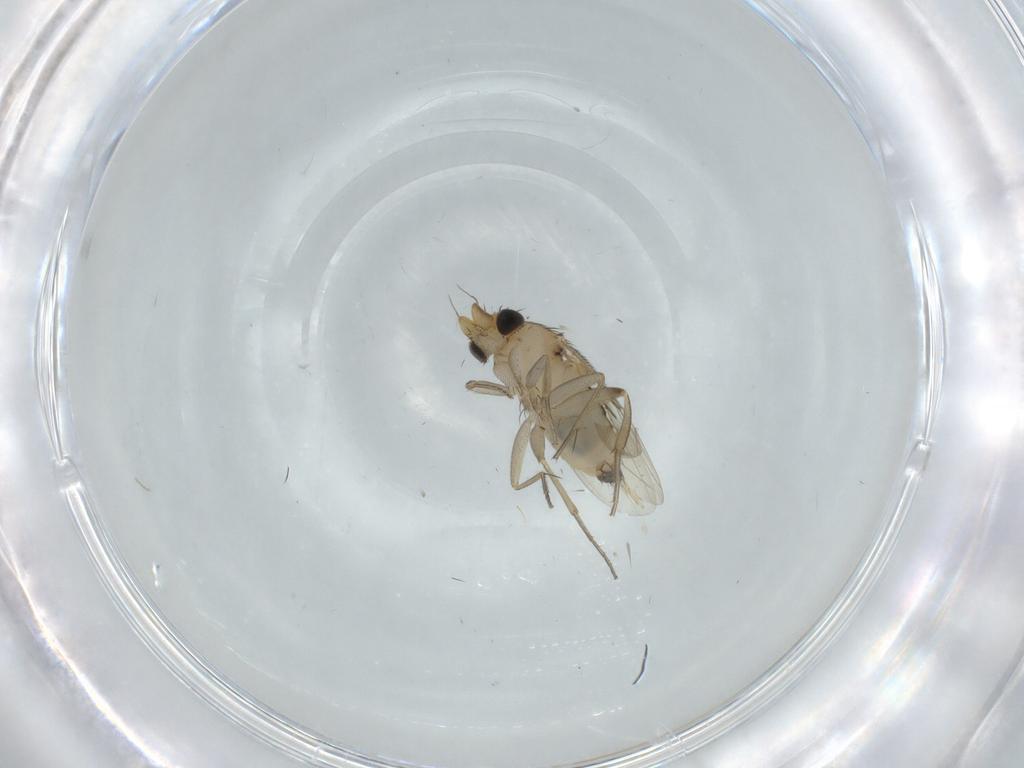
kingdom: Animalia
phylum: Arthropoda
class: Insecta
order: Diptera
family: Phoridae
